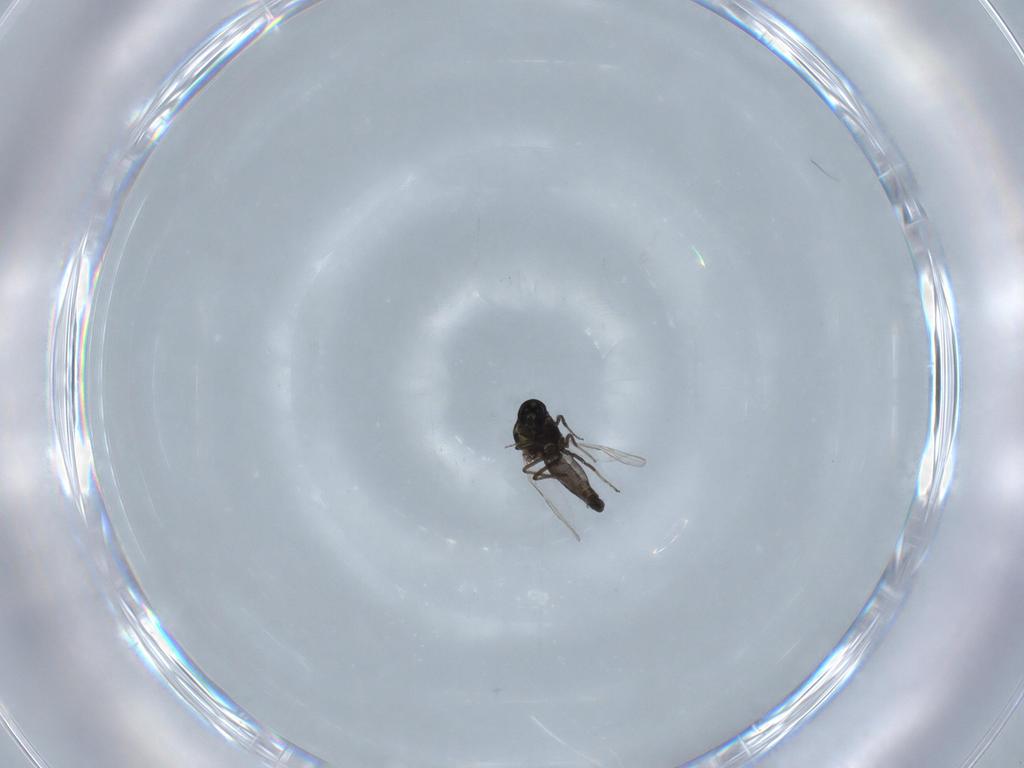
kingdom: Animalia
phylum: Arthropoda
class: Insecta
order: Diptera
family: Ceratopogonidae
